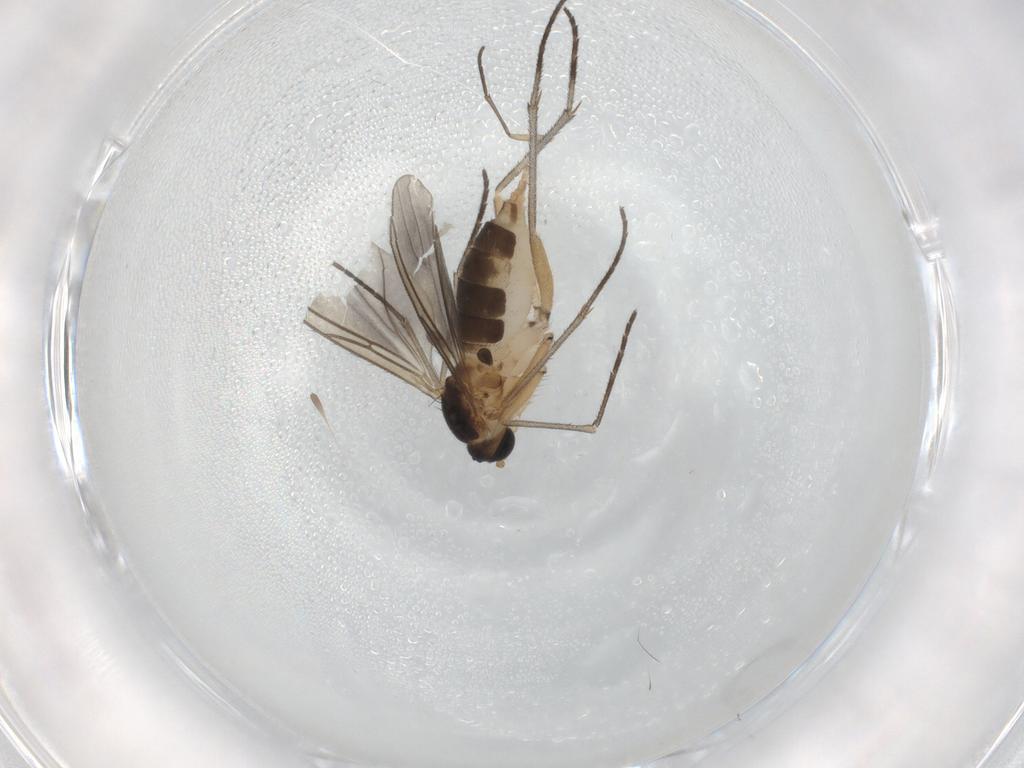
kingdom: Animalia
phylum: Arthropoda
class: Insecta
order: Diptera
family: Sciaridae
